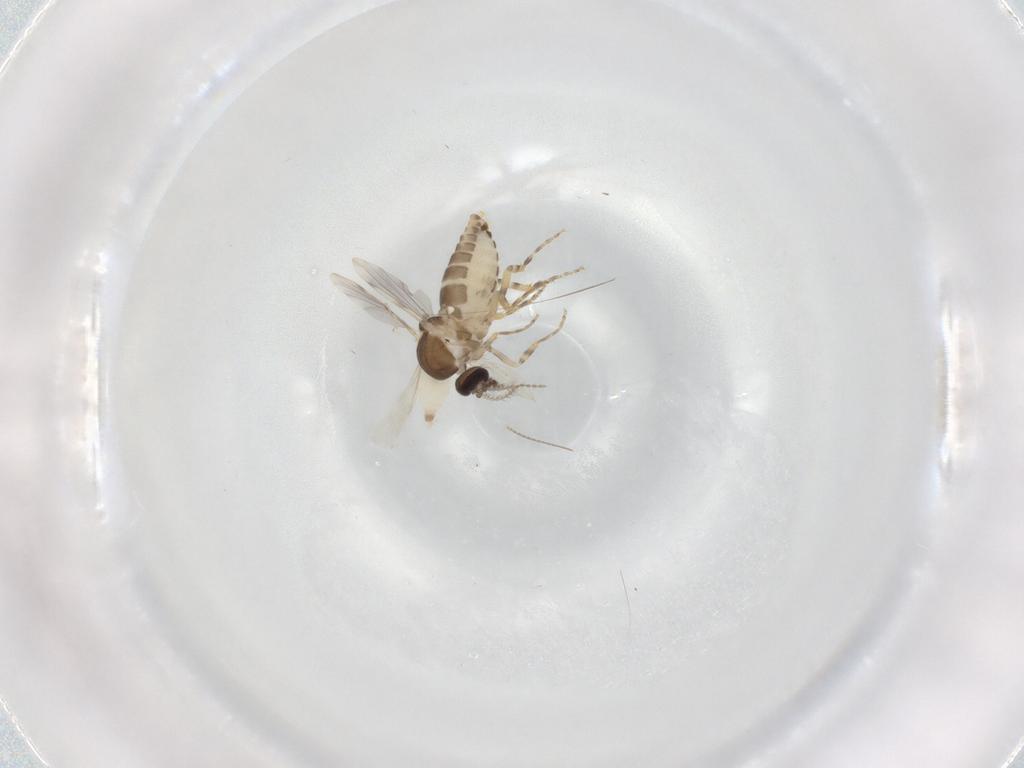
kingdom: Animalia
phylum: Arthropoda
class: Insecta
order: Diptera
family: Ceratopogonidae
